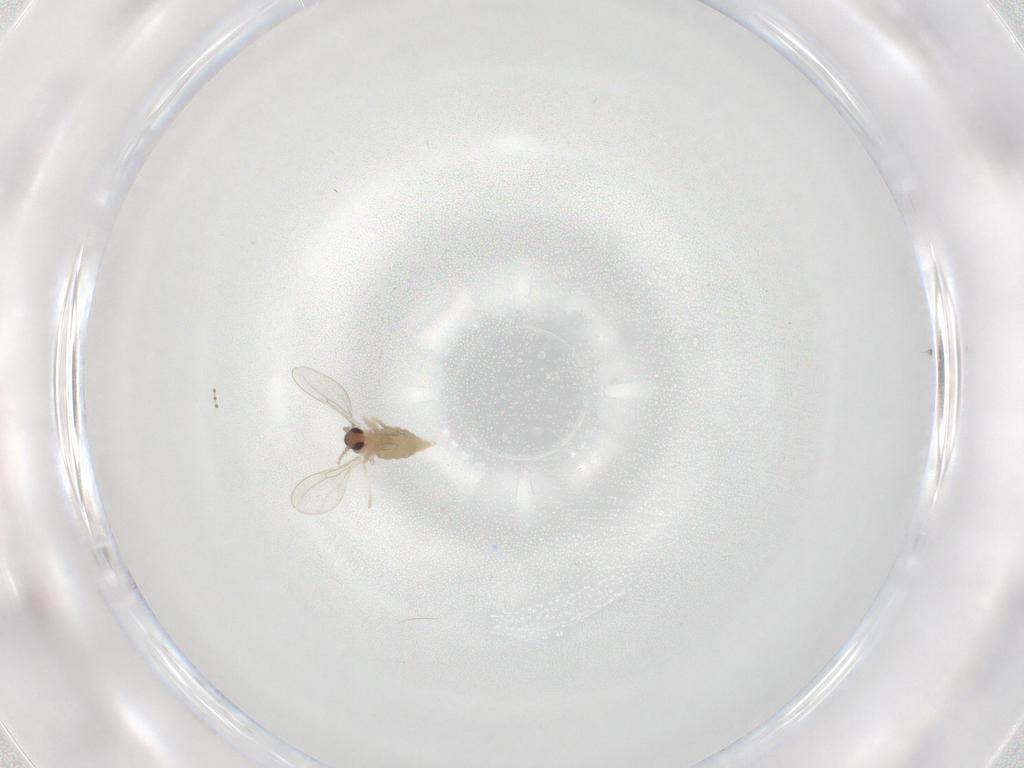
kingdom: Animalia
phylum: Arthropoda
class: Insecta
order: Diptera
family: Cecidomyiidae
